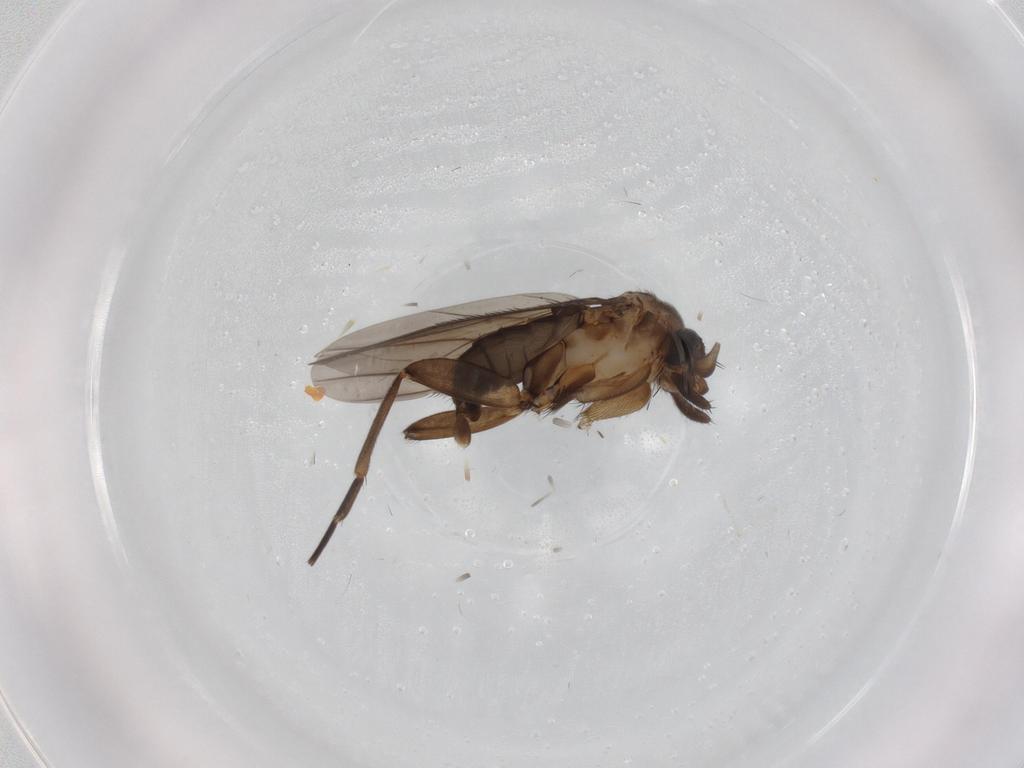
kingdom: Animalia
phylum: Arthropoda
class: Insecta
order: Diptera
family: Phoridae
